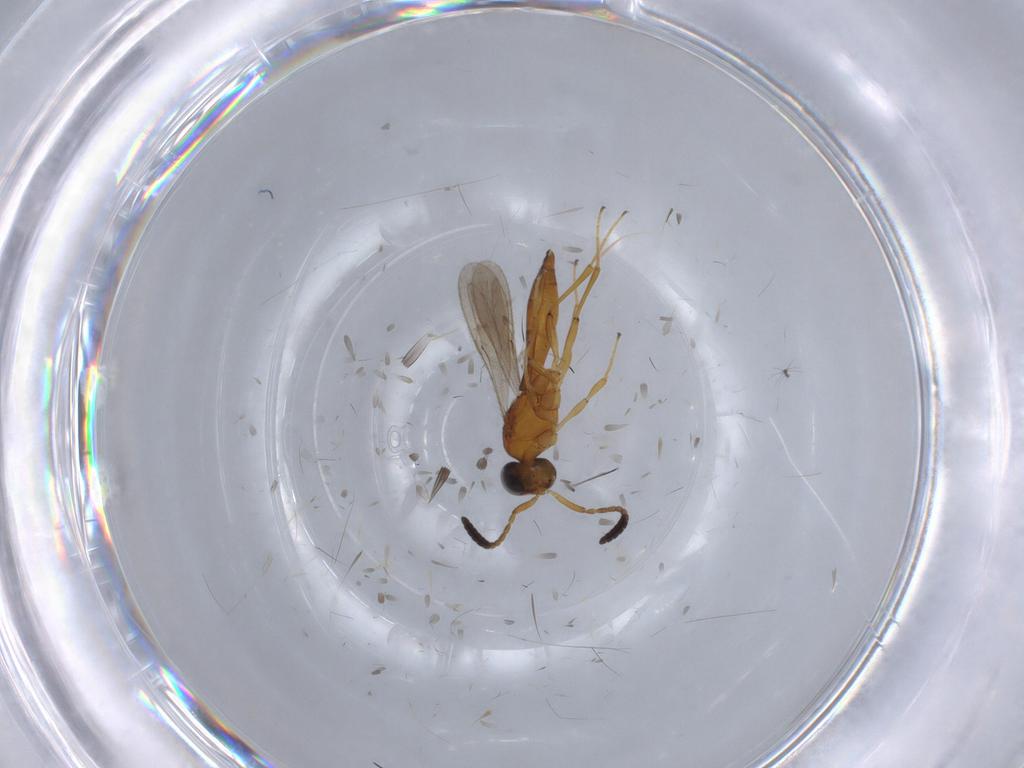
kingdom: Animalia
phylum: Arthropoda
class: Insecta
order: Hymenoptera
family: Scelionidae
